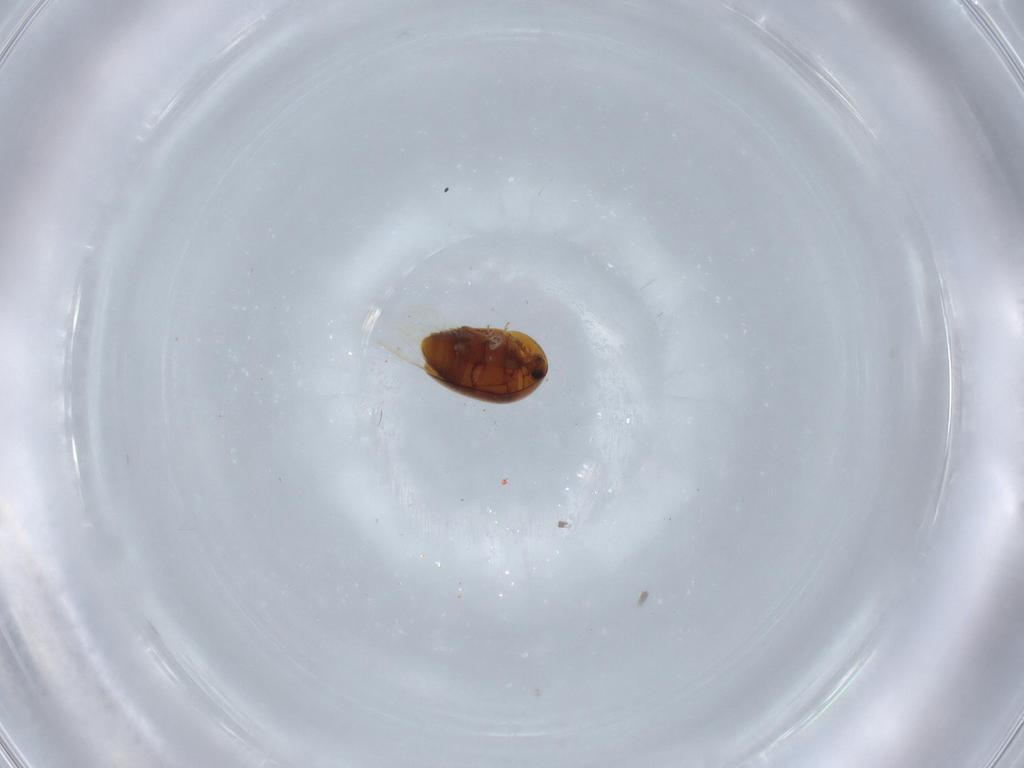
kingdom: Animalia
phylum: Arthropoda
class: Insecta
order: Coleoptera
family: Corylophidae
